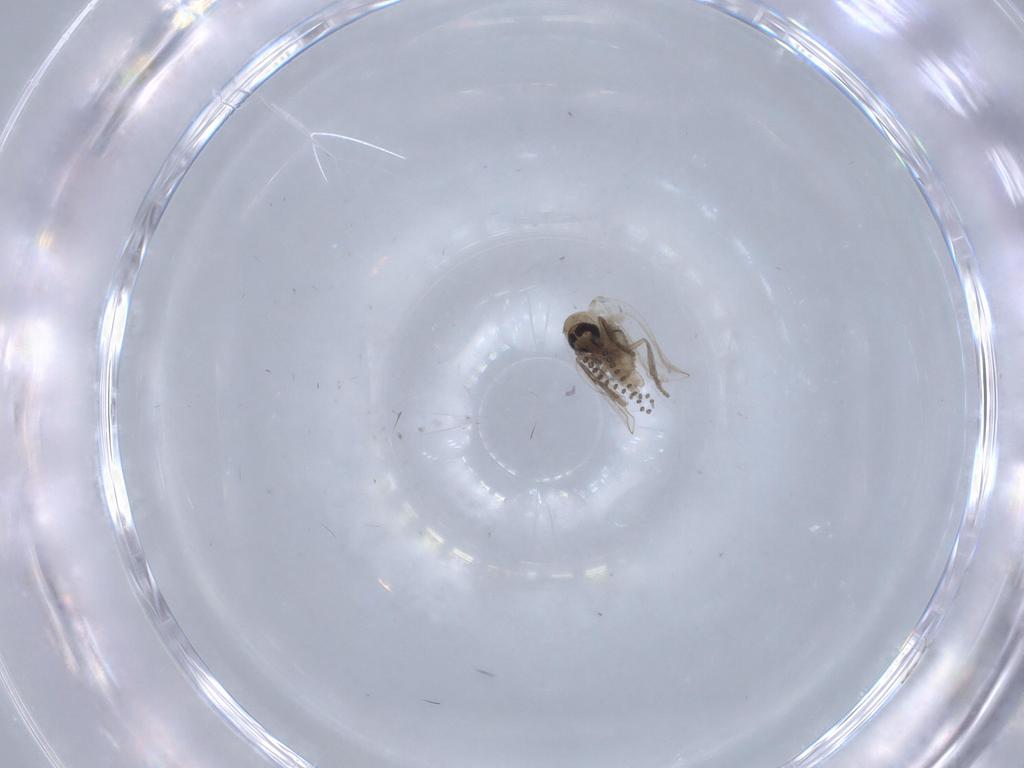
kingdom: Animalia
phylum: Arthropoda
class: Insecta
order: Diptera
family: Psychodidae
